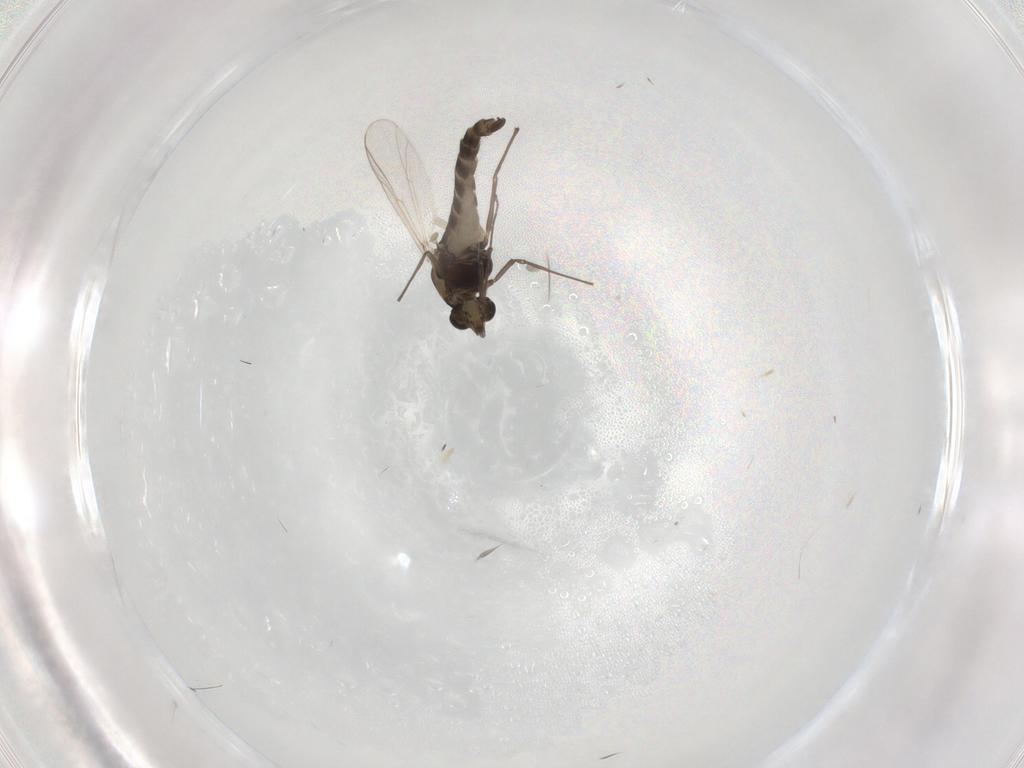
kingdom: Animalia
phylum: Arthropoda
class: Insecta
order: Diptera
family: Chironomidae
